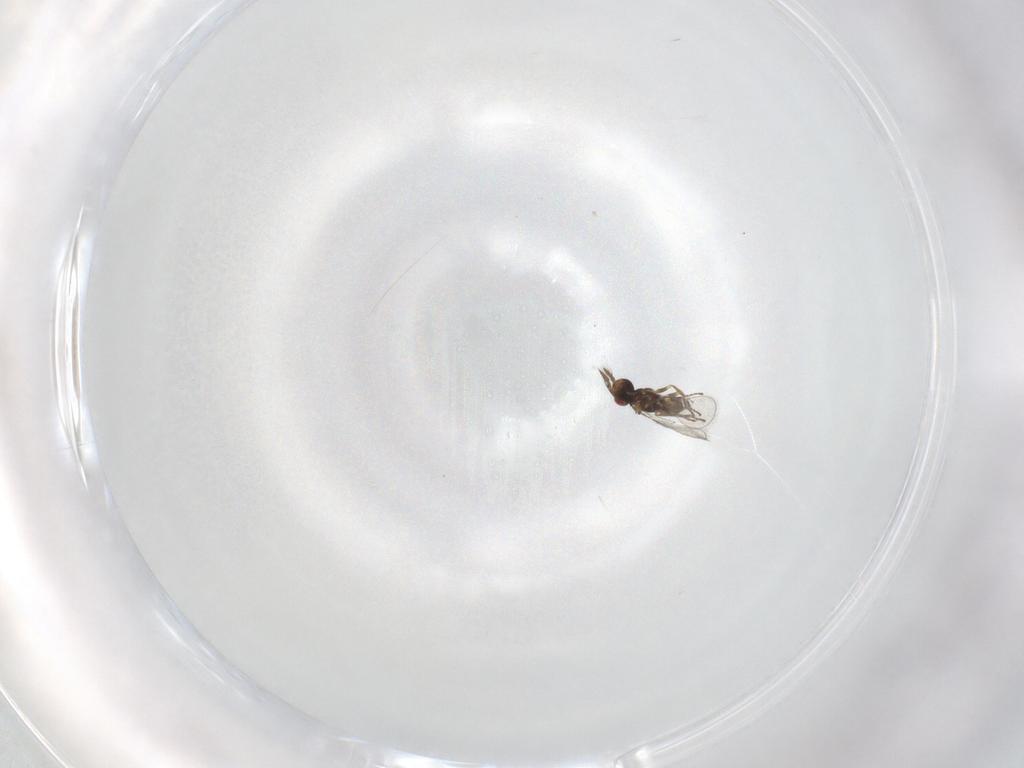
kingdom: Animalia
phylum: Arthropoda
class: Insecta
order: Hymenoptera
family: Eulophidae
